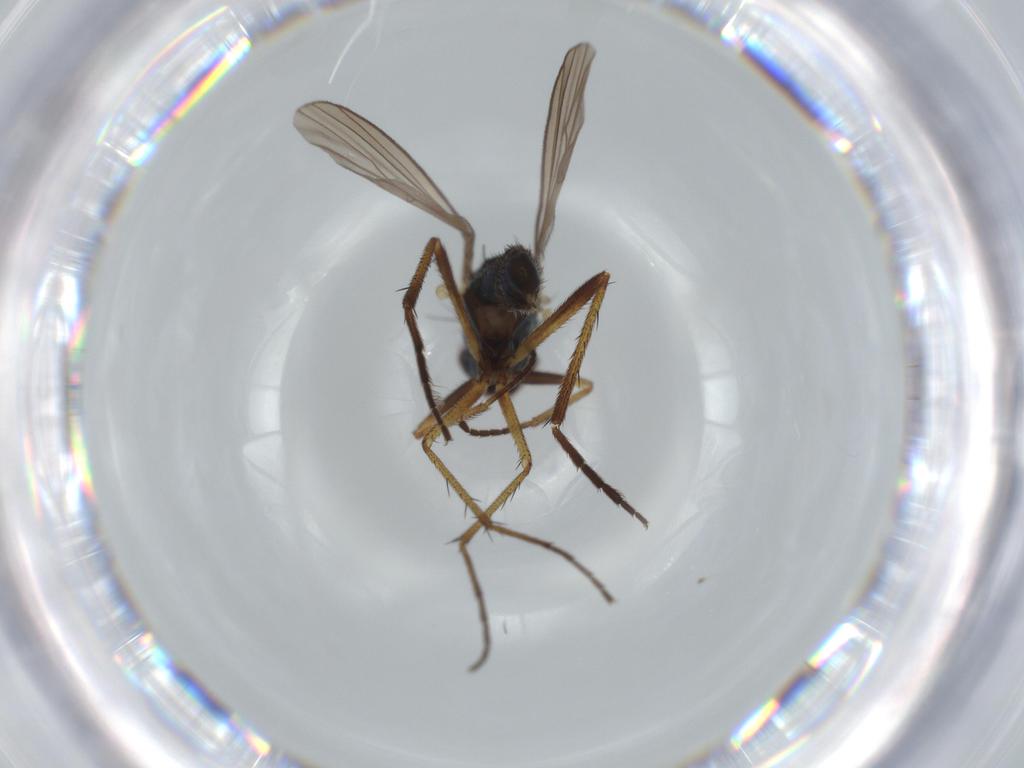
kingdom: Animalia
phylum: Arthropoda
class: Insecta
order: Diptera
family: Dolichopodidae
